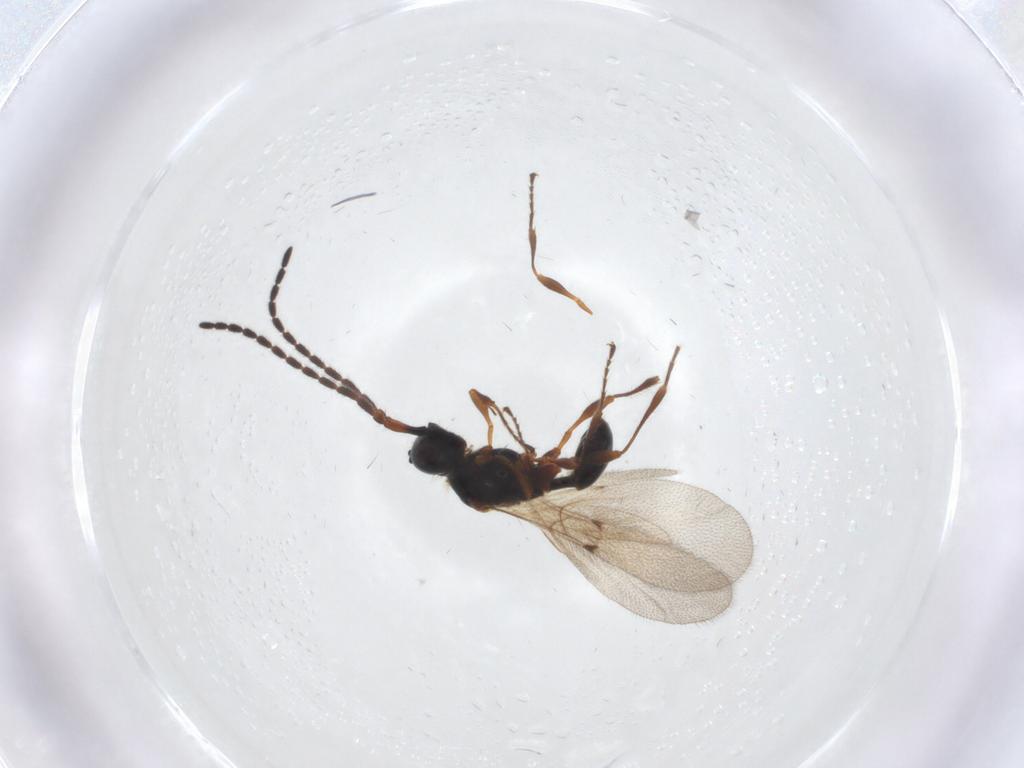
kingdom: Animalia
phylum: Arthropoda
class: Insecta
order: Hymenoptera
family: Diapriidae
